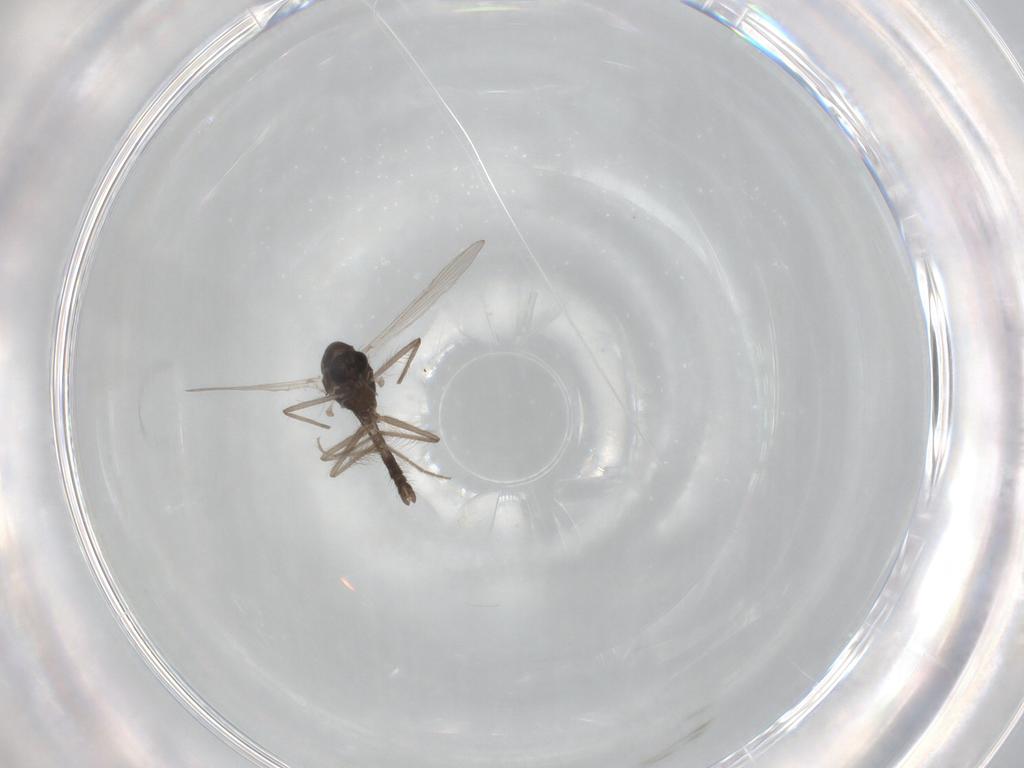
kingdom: Animalia
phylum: Arthropoda
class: Insecta
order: Diptera
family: Chironomidae
